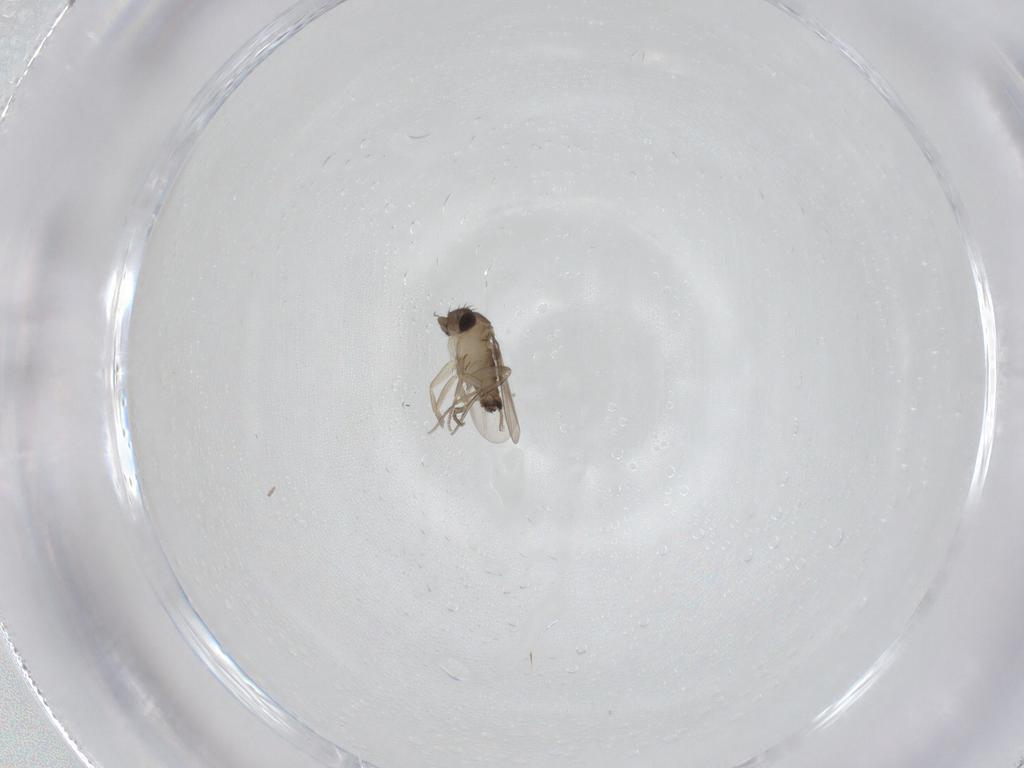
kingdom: Animalia
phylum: Arthropoda
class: Insecta
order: Diptera
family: Phoridae
